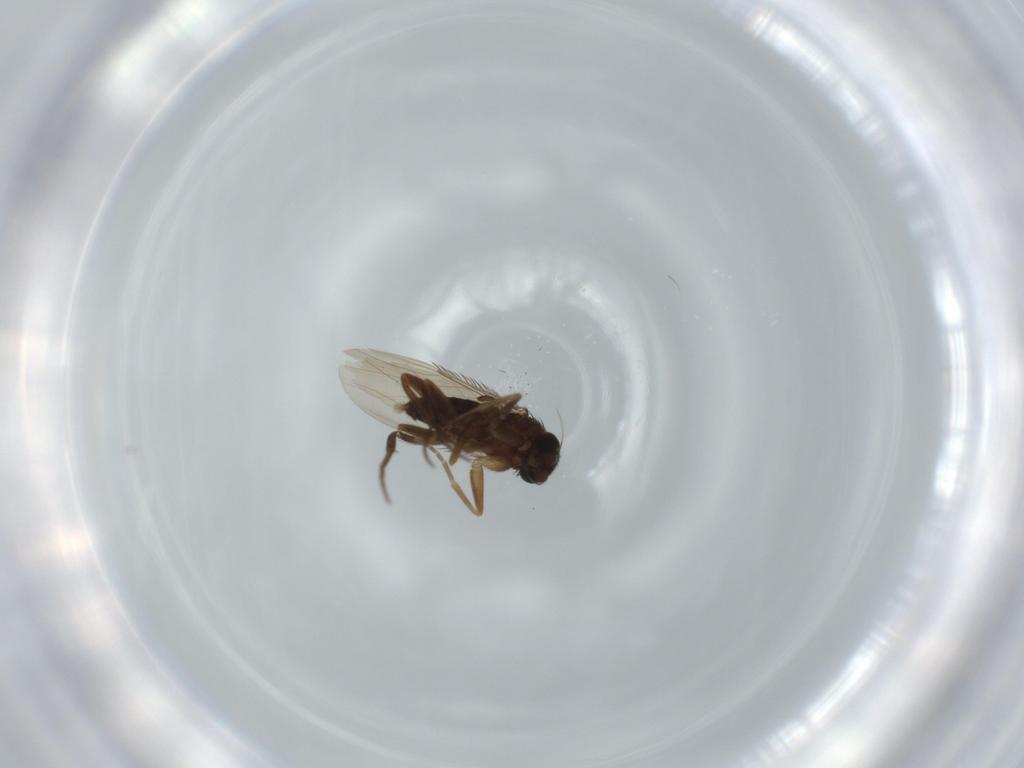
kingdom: Animalia
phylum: Arthropoda
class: Insecta
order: Diptera
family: Phoridae
